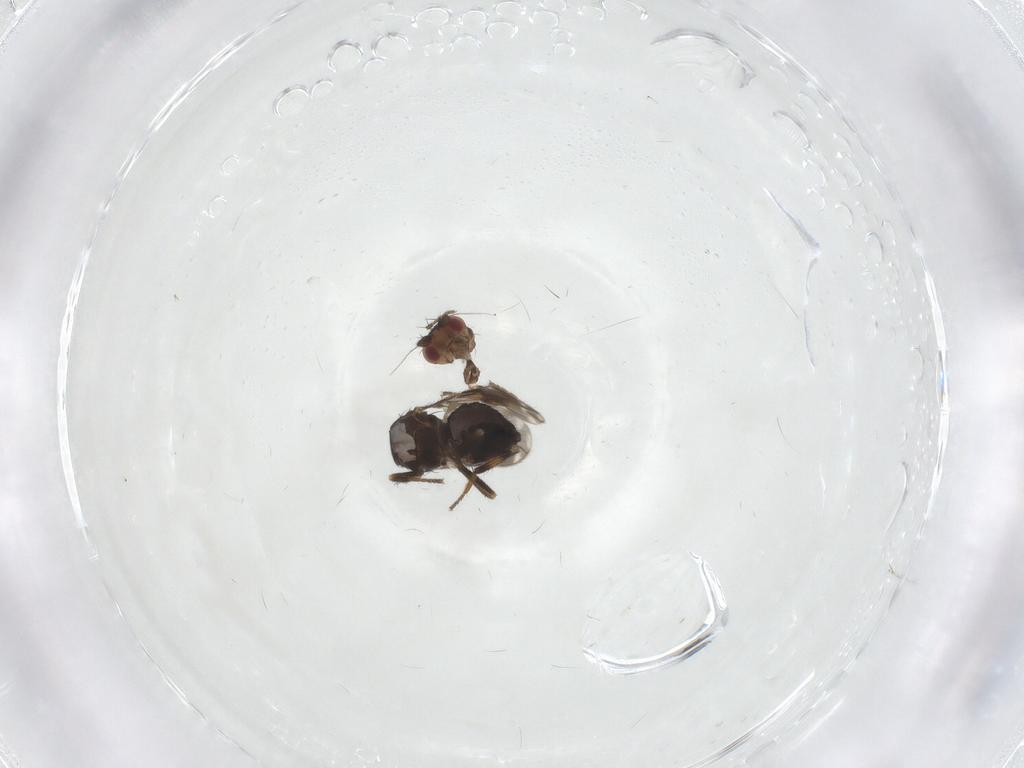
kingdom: Animalia
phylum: Arthropoda
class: Insecta
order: Diptera
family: Sphaeroceridae
